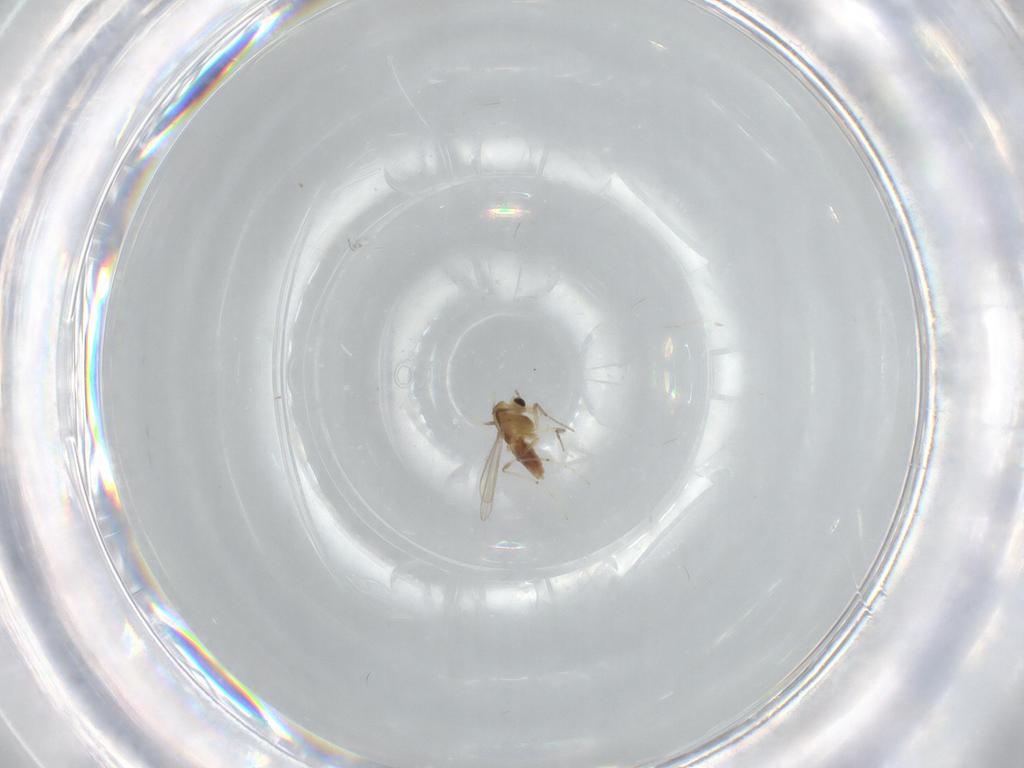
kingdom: Animalia
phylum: Arthropoda
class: Insecta
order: Diptera
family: Chironomidae
